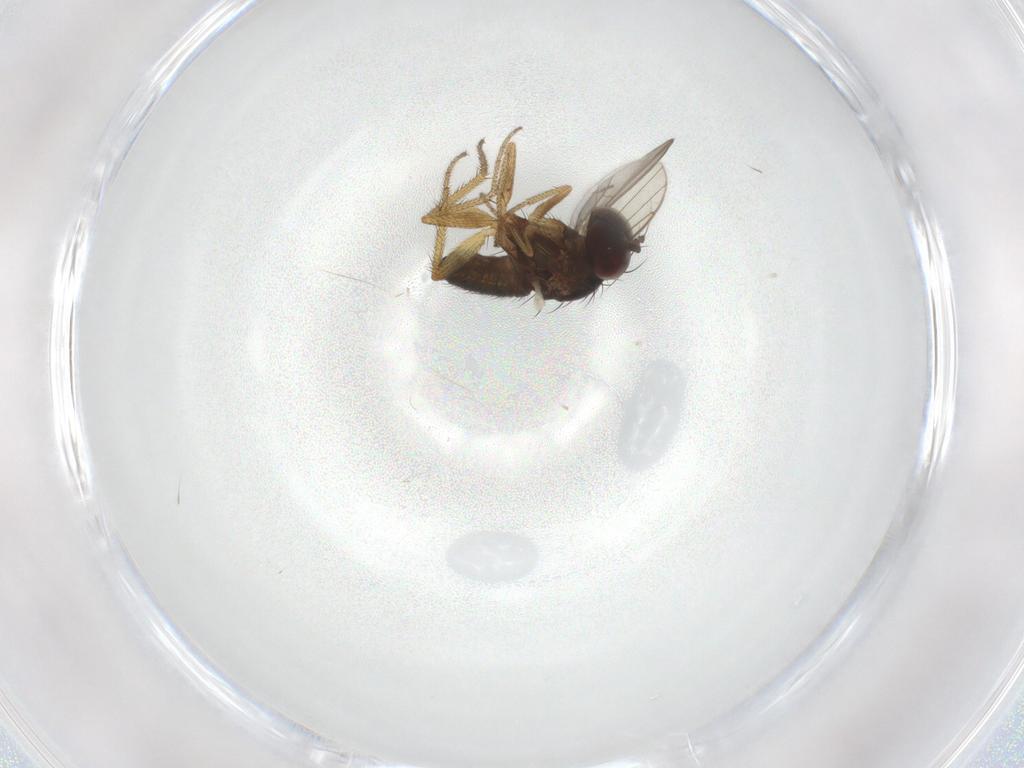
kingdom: Animalia
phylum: Arthropoda
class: Insecta
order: Diptera
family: Sciaridae
